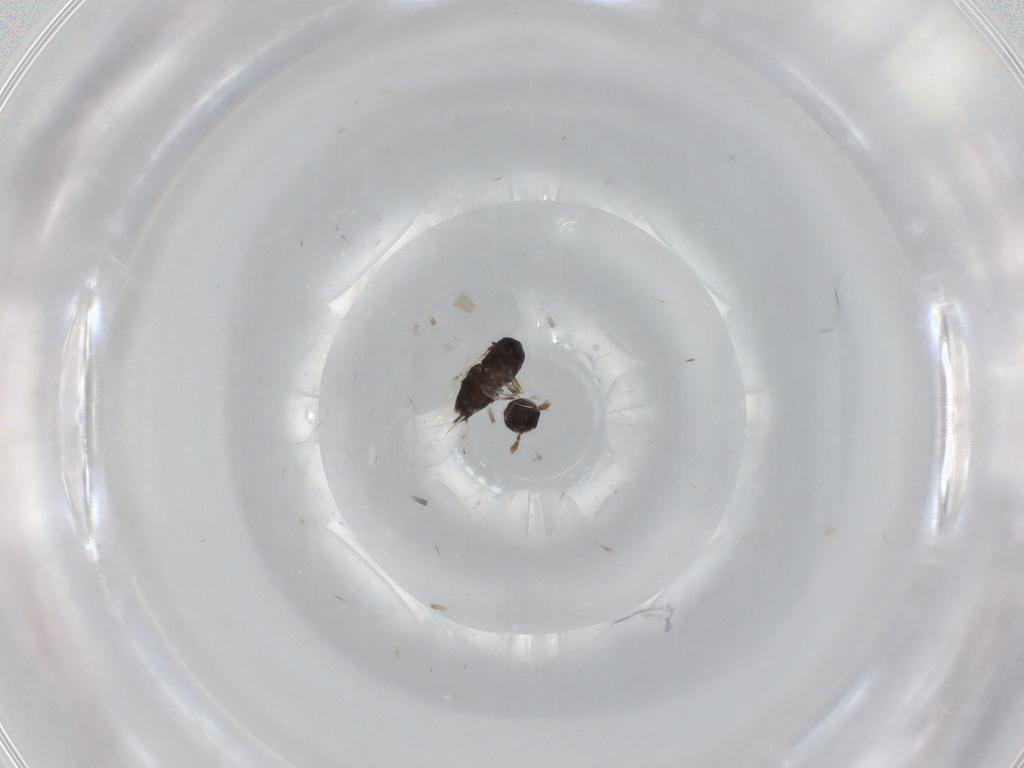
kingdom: Animalia
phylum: Arthropoda
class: Insecta
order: Hymenoptera
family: Encyrtidae
